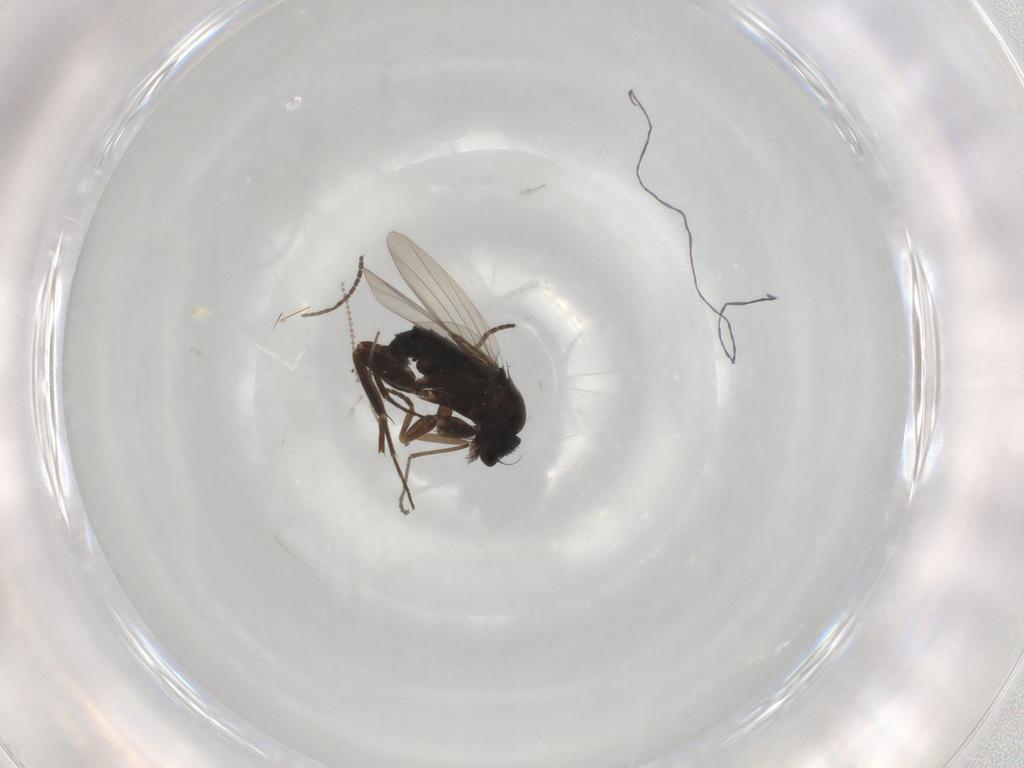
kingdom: Animalia
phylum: Arthropoda
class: Insecta
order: Diptera
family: Phoridae
